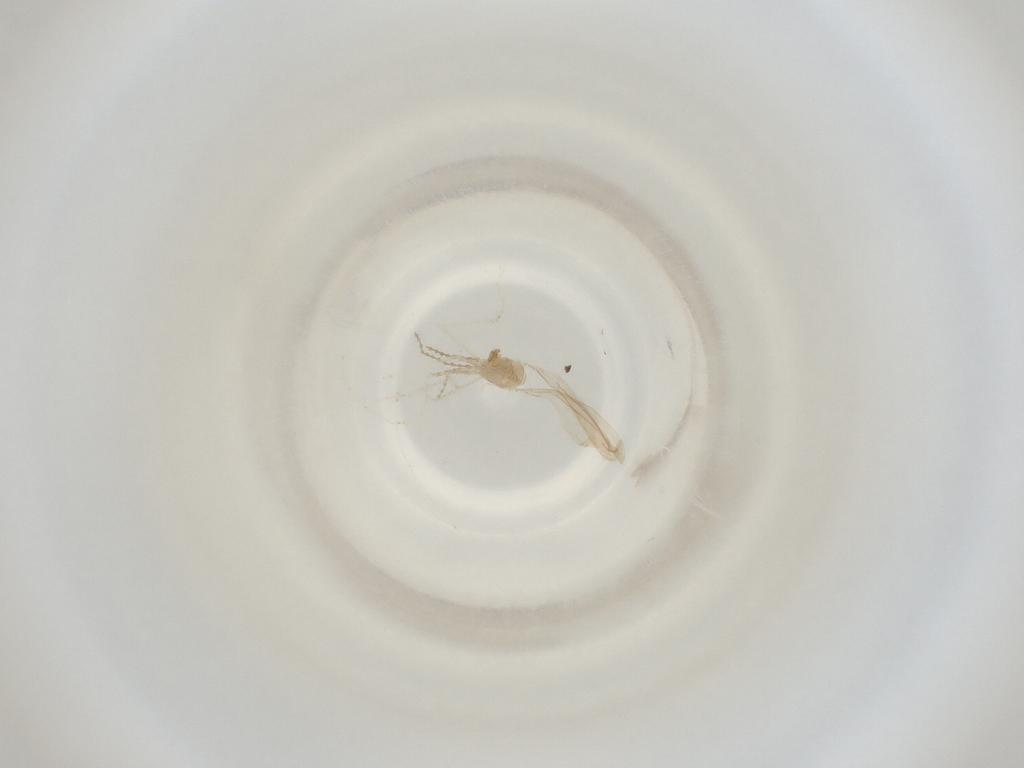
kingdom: Animalia
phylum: Arthropoda
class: Insecta
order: Diptera
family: Cecidomyiidae
